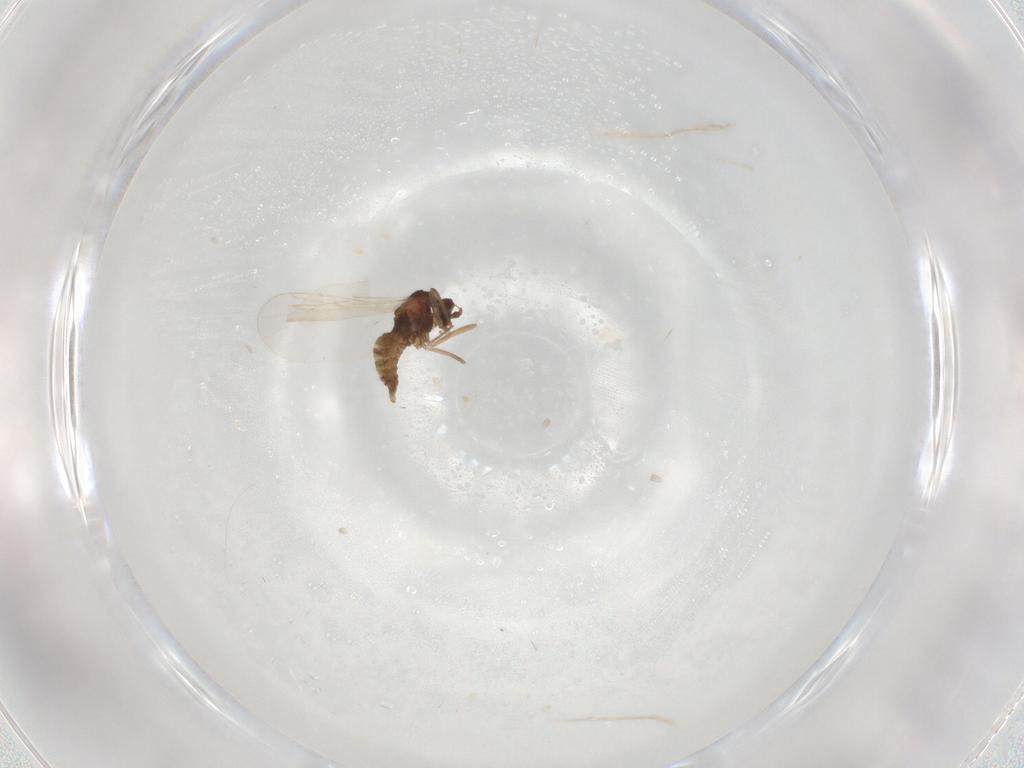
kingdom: Animalia
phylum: Arthropoda
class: Insecta
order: Diptera
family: Cecidomyiidae
